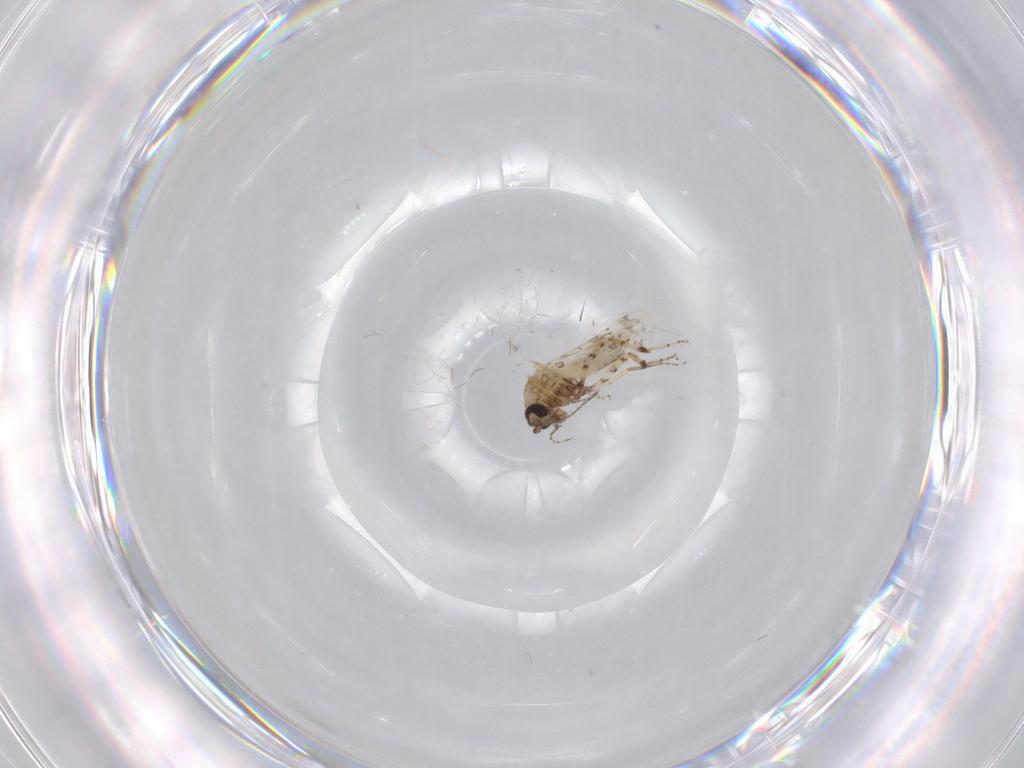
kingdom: Animalia
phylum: Arthropoda
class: Insecta
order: Diptera
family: Ceratopogonidae
